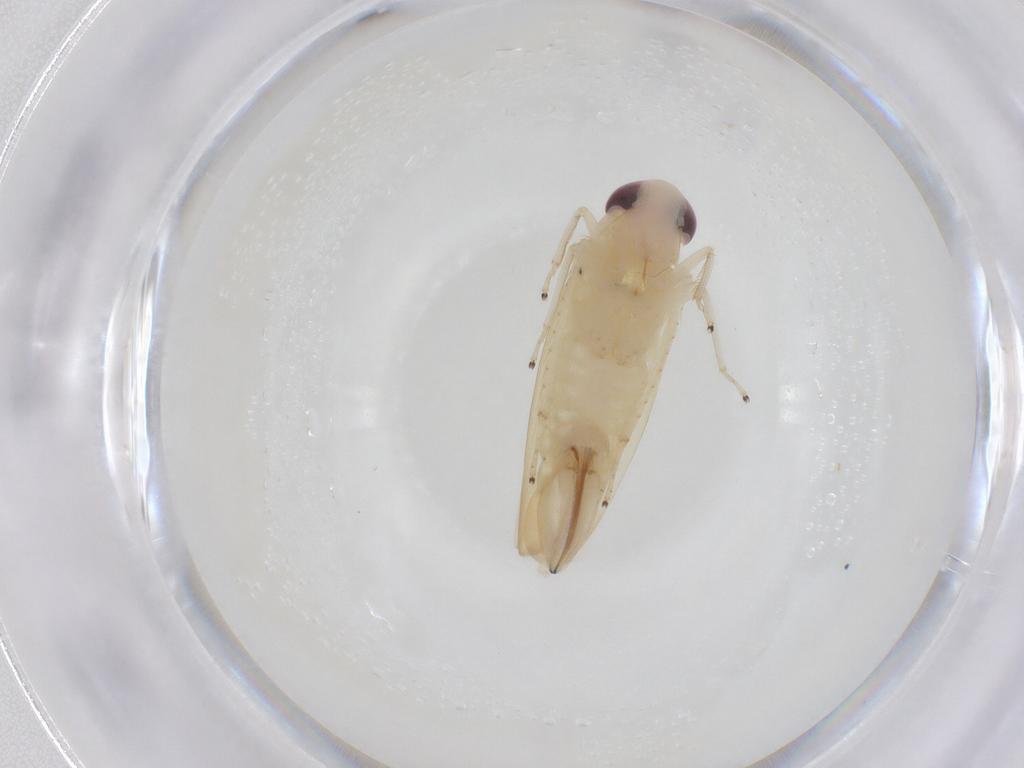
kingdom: Animalia
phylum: Arthropoda
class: Insecta
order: Hemiptera
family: Cicadellidae
